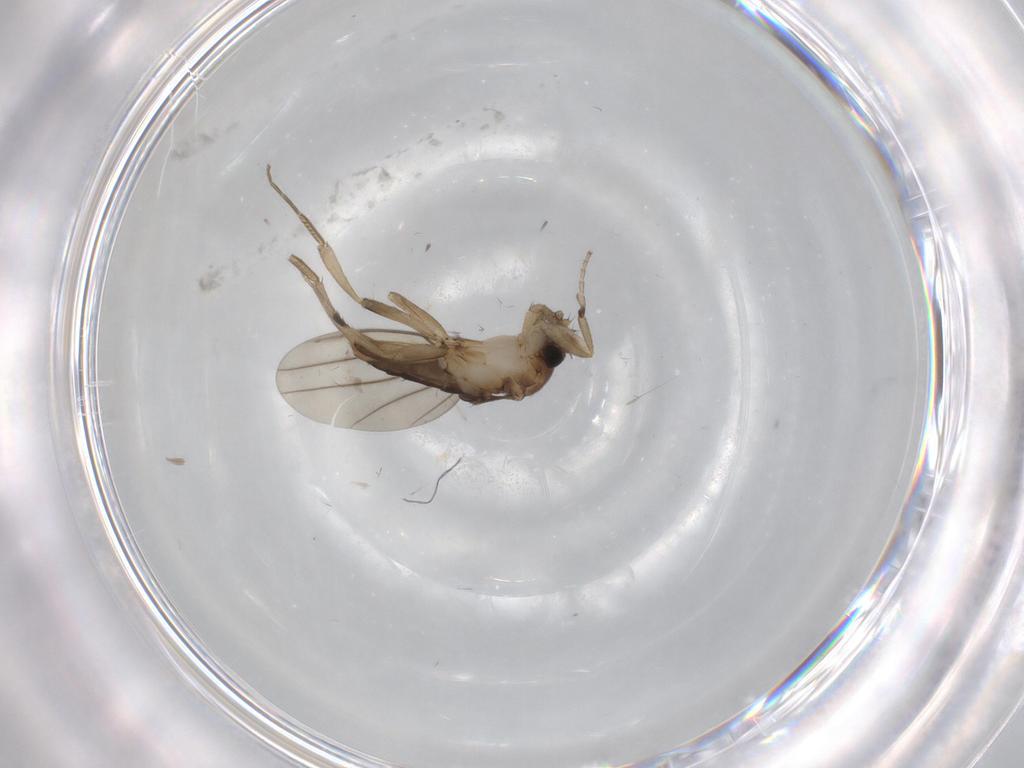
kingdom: Animalia
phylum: Arthropoda
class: Insecta
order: Diptera
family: Phoridae
